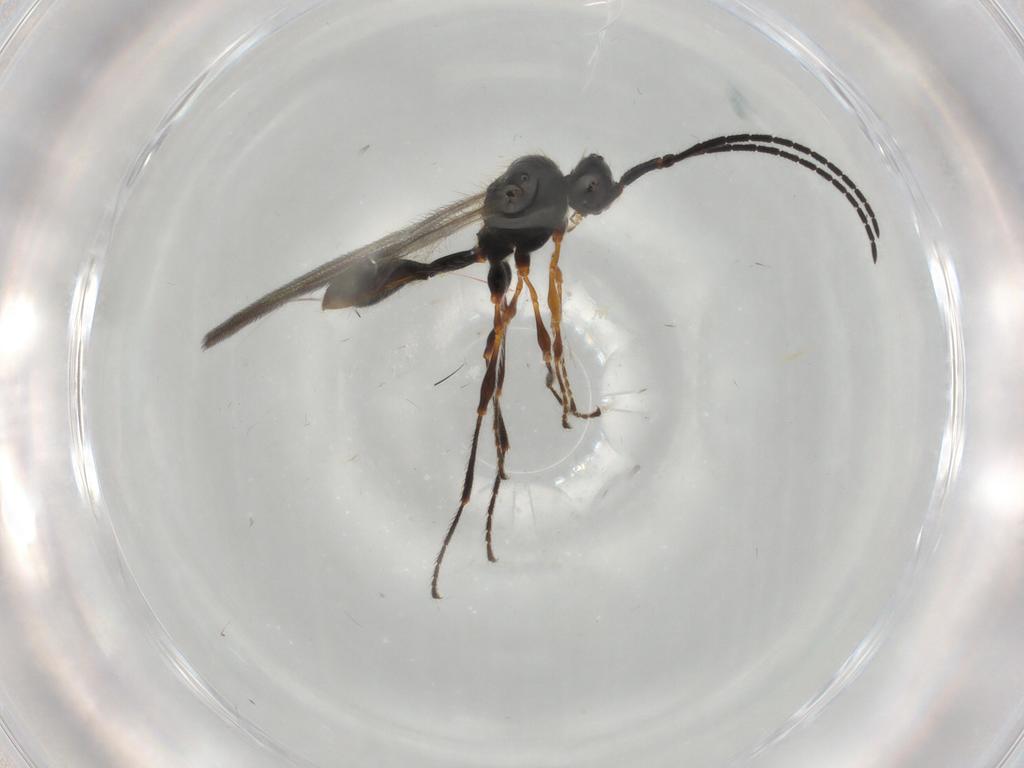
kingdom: Animalia
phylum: Arthropoda
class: Insecta
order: Hymenoptera
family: Diapriidae
